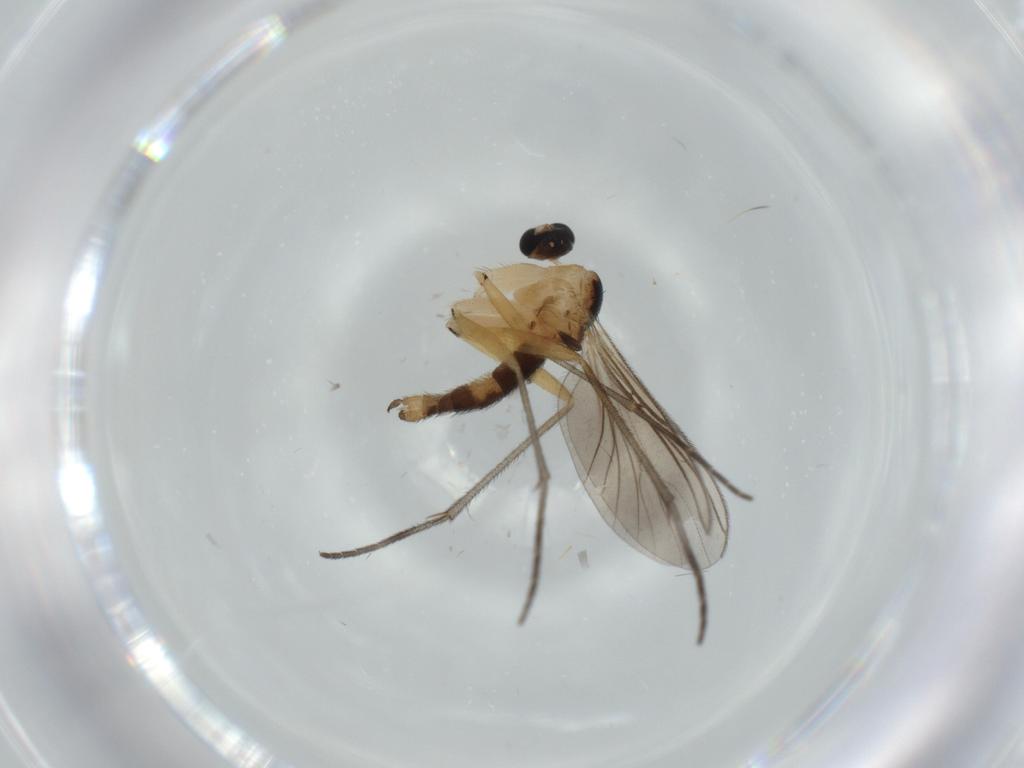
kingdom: Animalia
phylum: Arthropoda
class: Insecta
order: Diptera
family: Sciaridae
